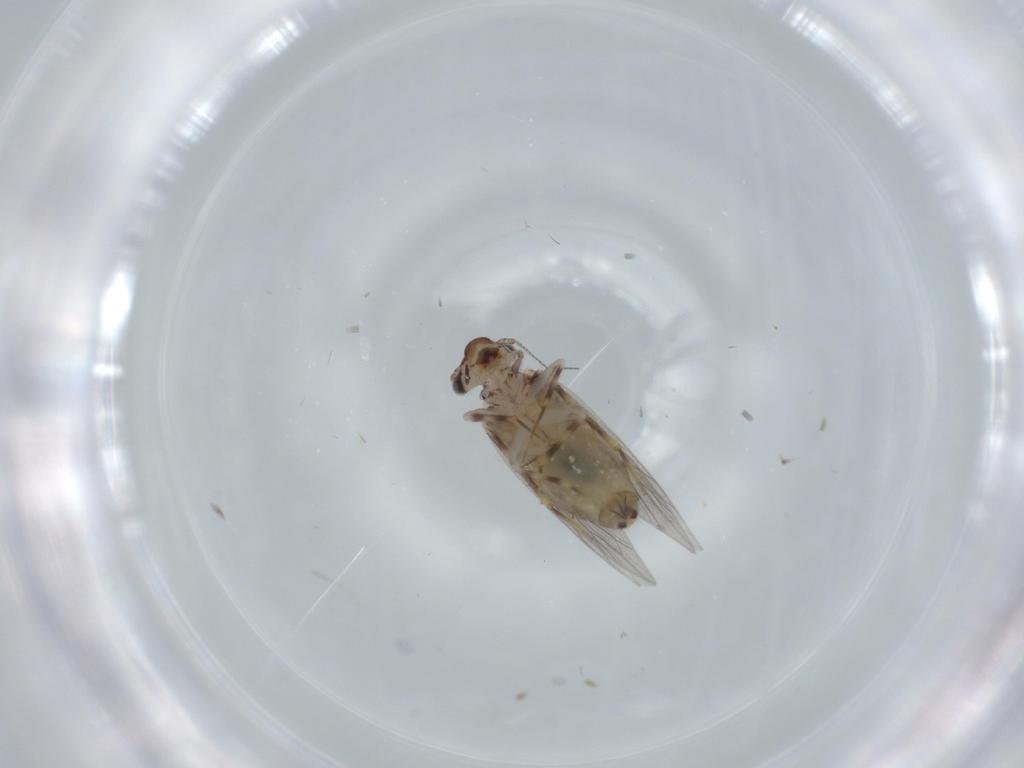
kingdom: Animalia
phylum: Arthropoda
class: Insecta
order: Psocodea
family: Lepidopsocidae
